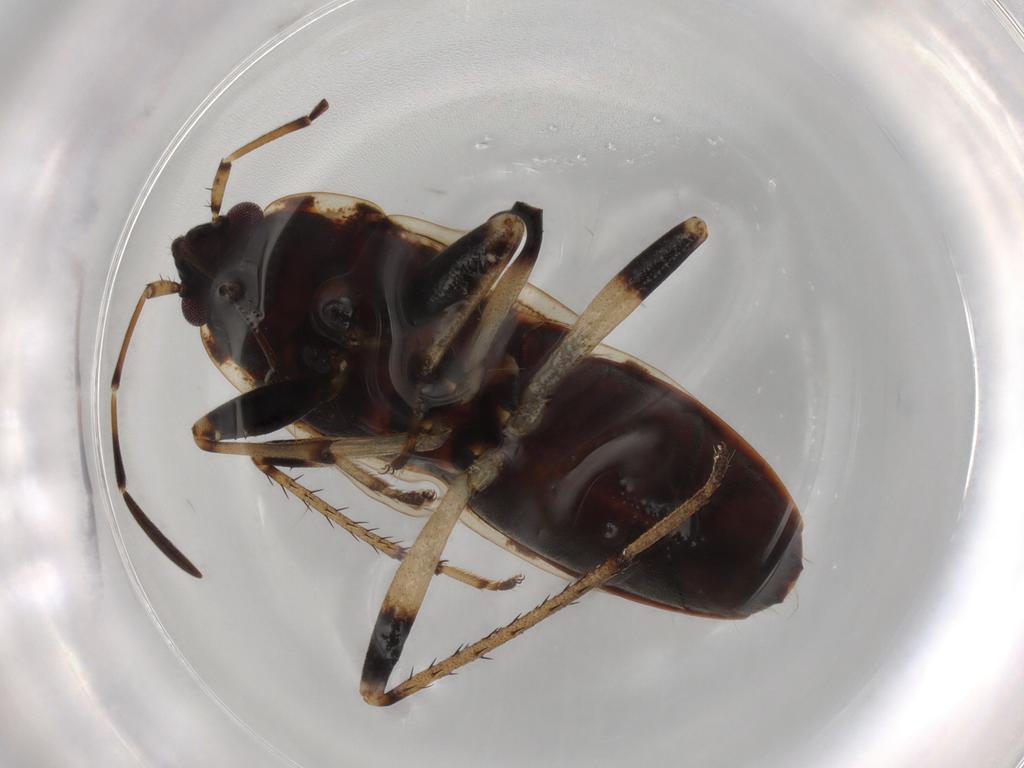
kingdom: Animalia
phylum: Arthropoda
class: Insecta
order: Hemiptera
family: Rhyparochromidae
